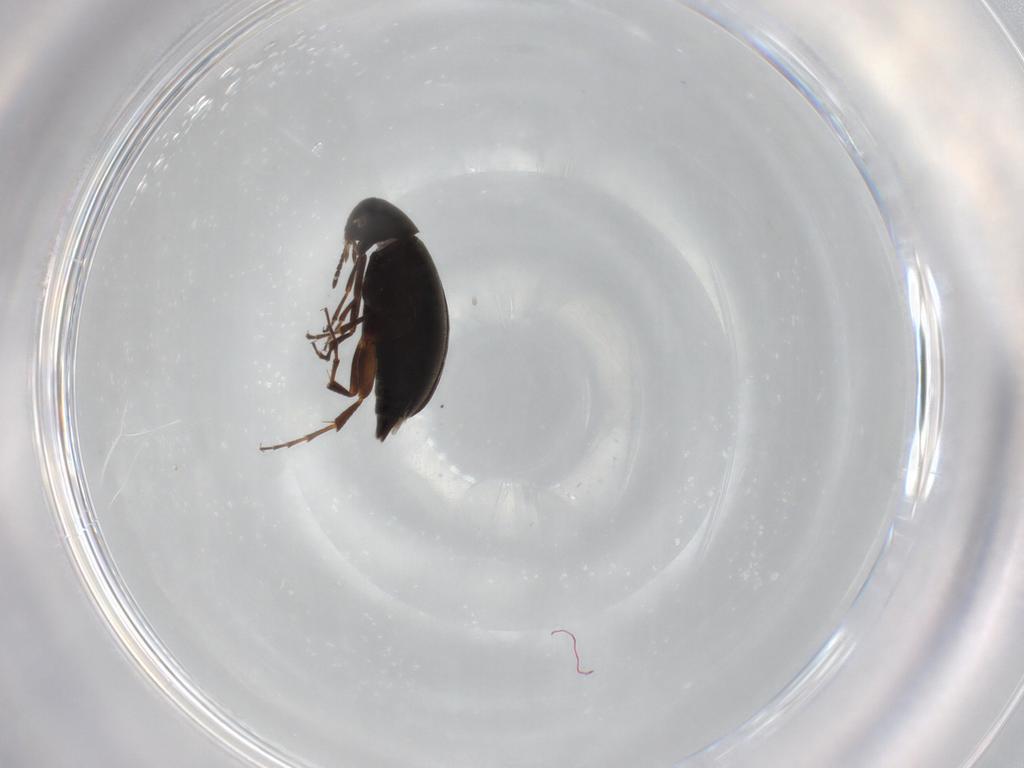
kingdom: Animalia
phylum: Arthropoda
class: Insecta
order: Coleoptera
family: Scraptiidae
